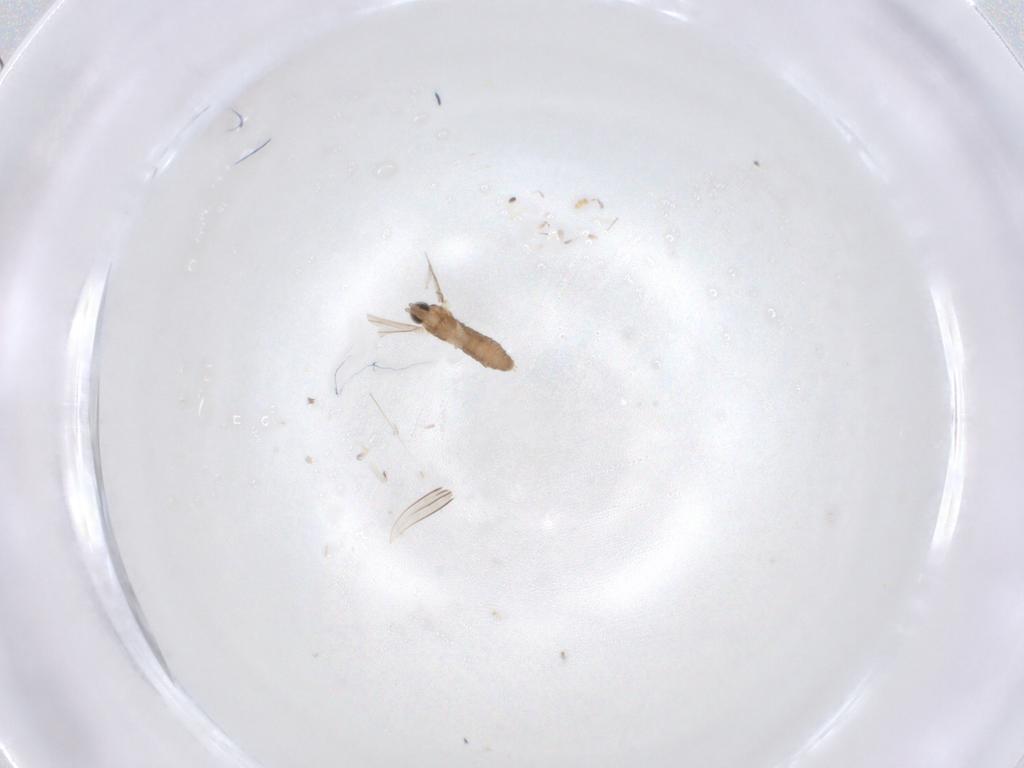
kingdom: Animalia
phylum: Arthropoda
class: Insecta
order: Diptera
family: Cecidomyiidae
